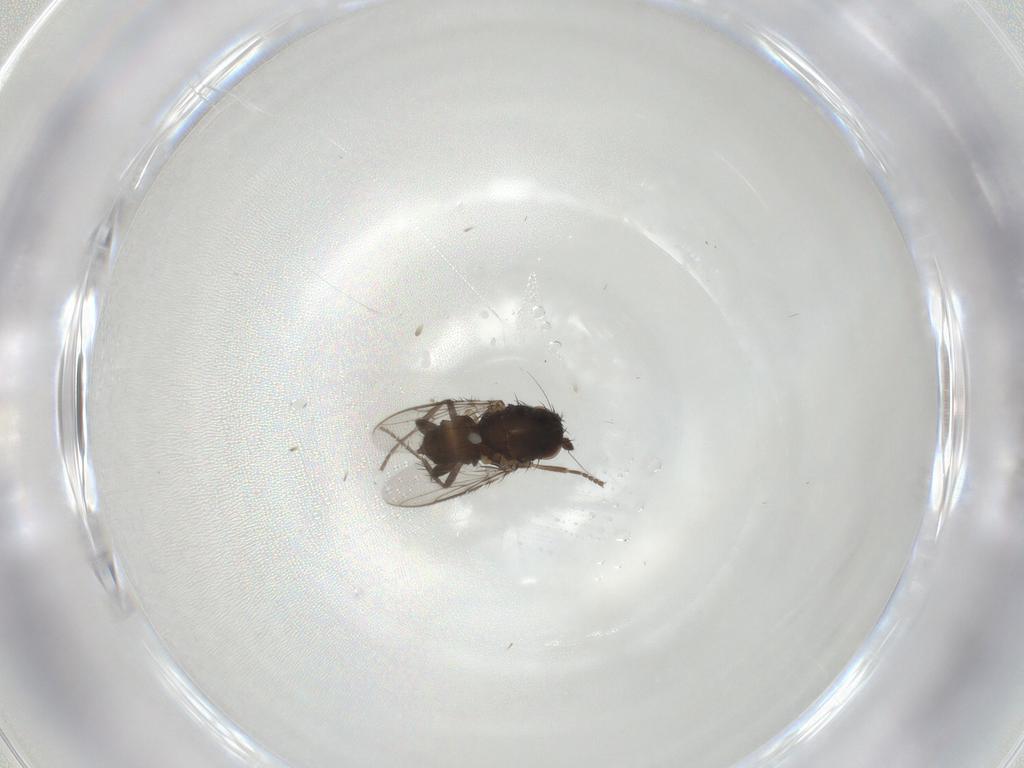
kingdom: Animalia
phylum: Arthropoda
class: Insecta
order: Diptera
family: Sphaeroceridae
